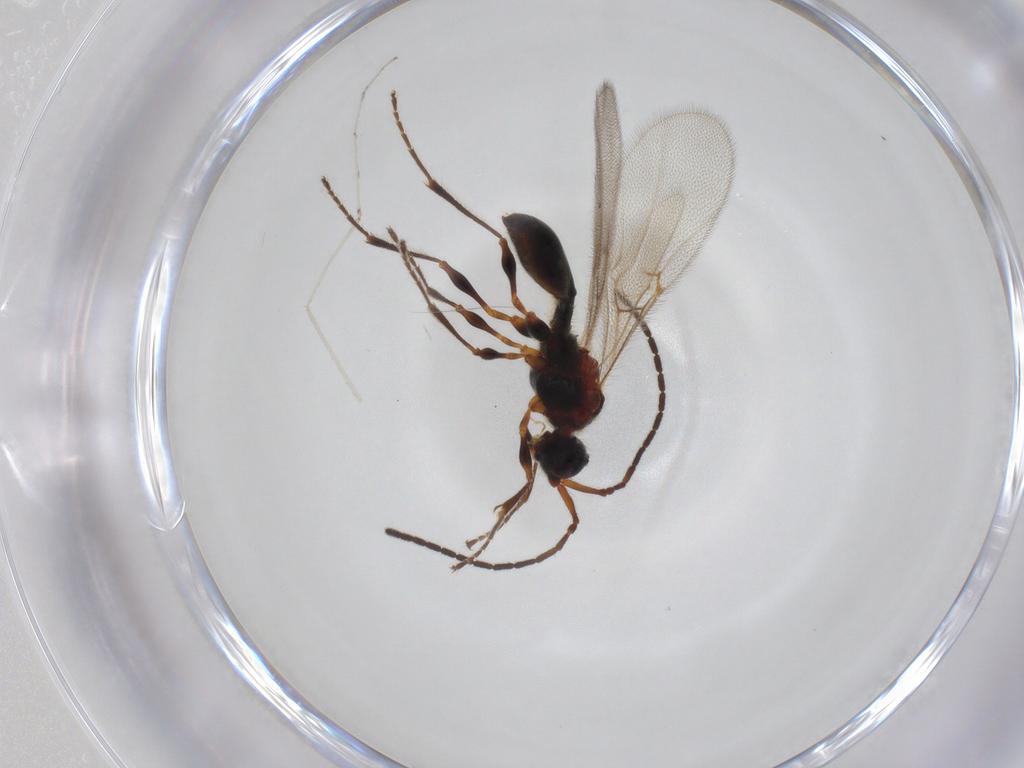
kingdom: Animalia
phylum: Arthropoda
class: Insecta
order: Hymenoptera
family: Diapriidae
